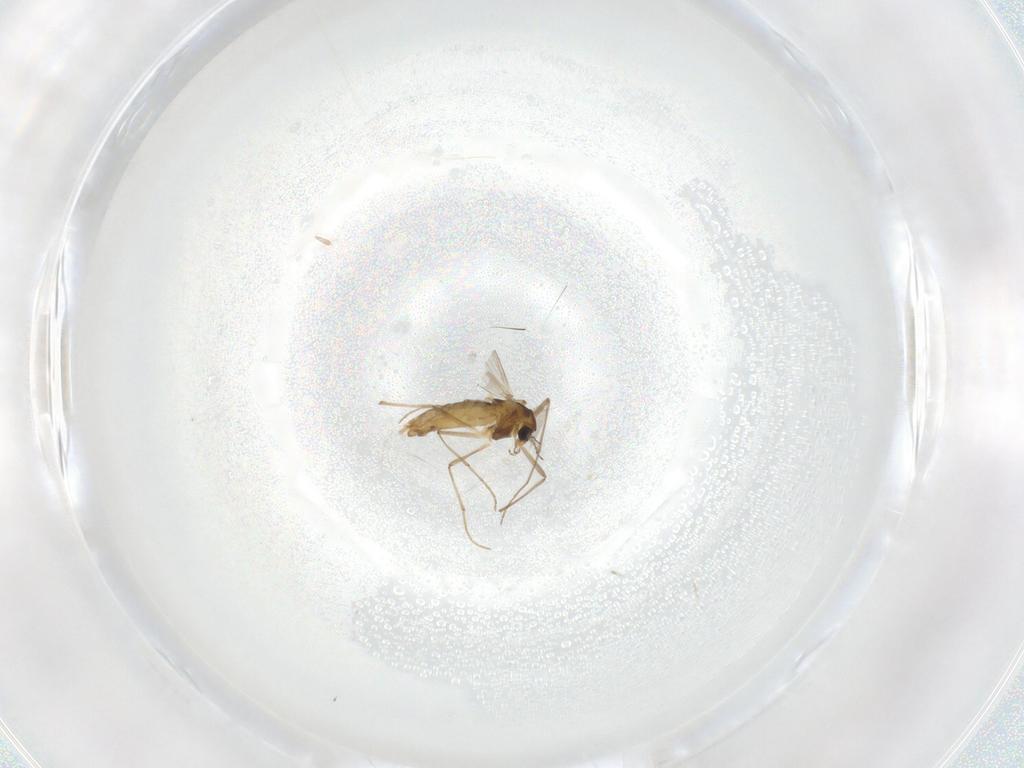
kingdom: Animalia
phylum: Arthropoda
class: Insecta
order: Diptera
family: Chironomidae
